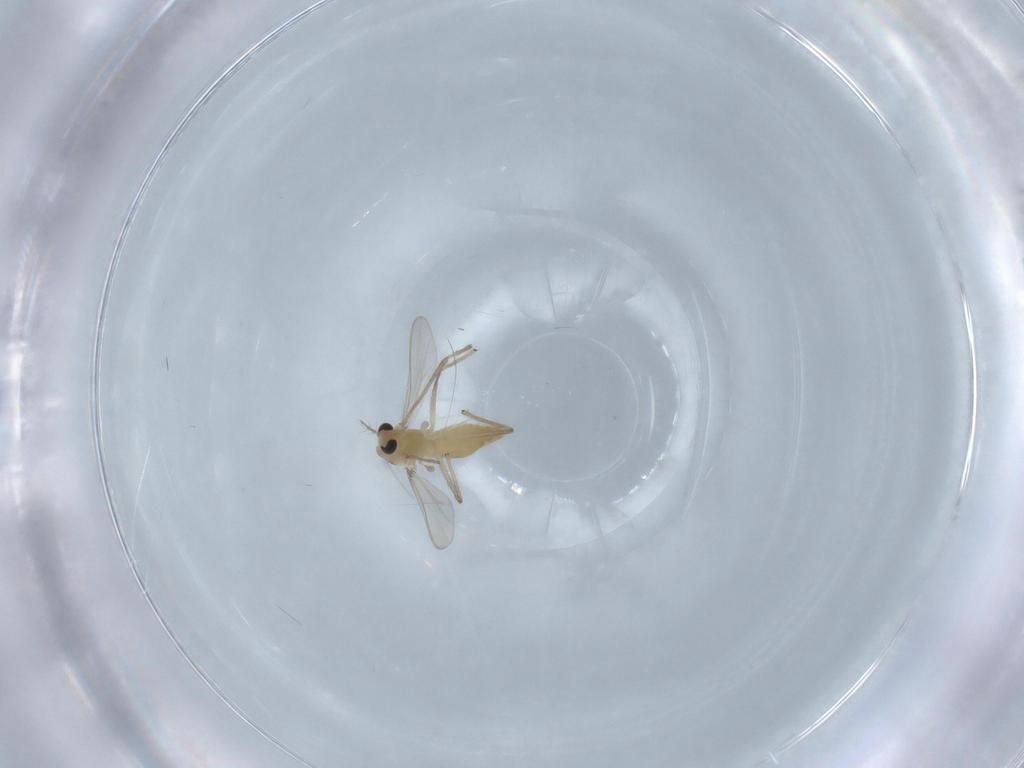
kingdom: Animalia
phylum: Arthropoda
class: Insecta
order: Diptera
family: Chironomidae
